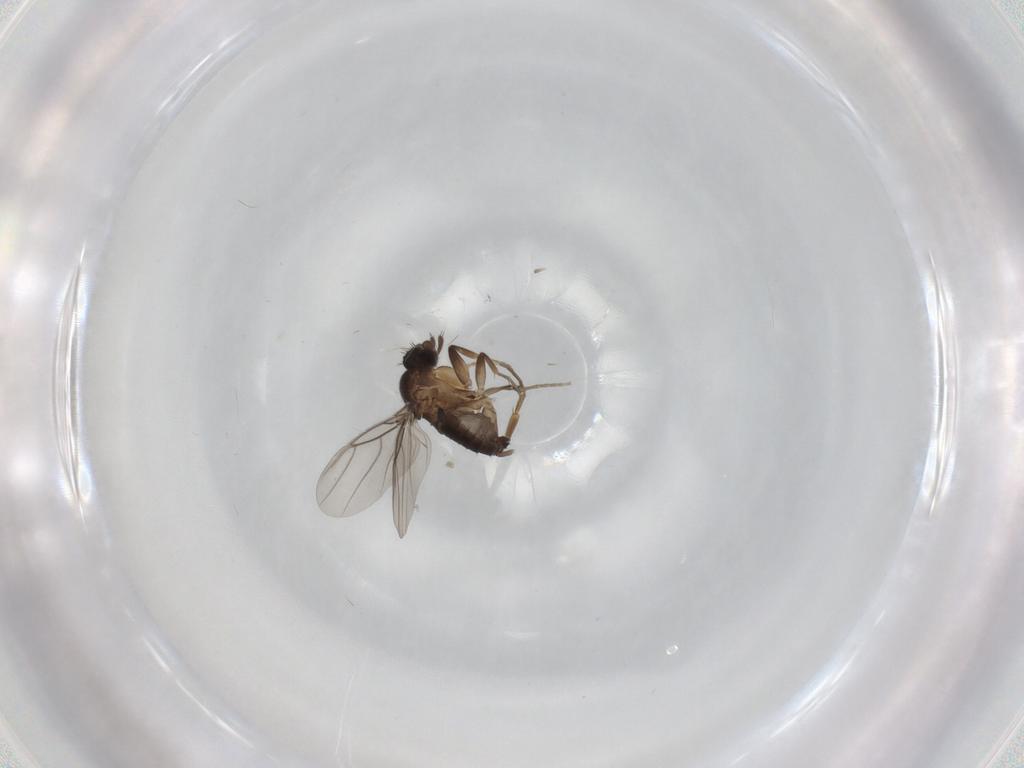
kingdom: Animalia
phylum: Arthropoda
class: Insecta
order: Diptera
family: Phoridae
